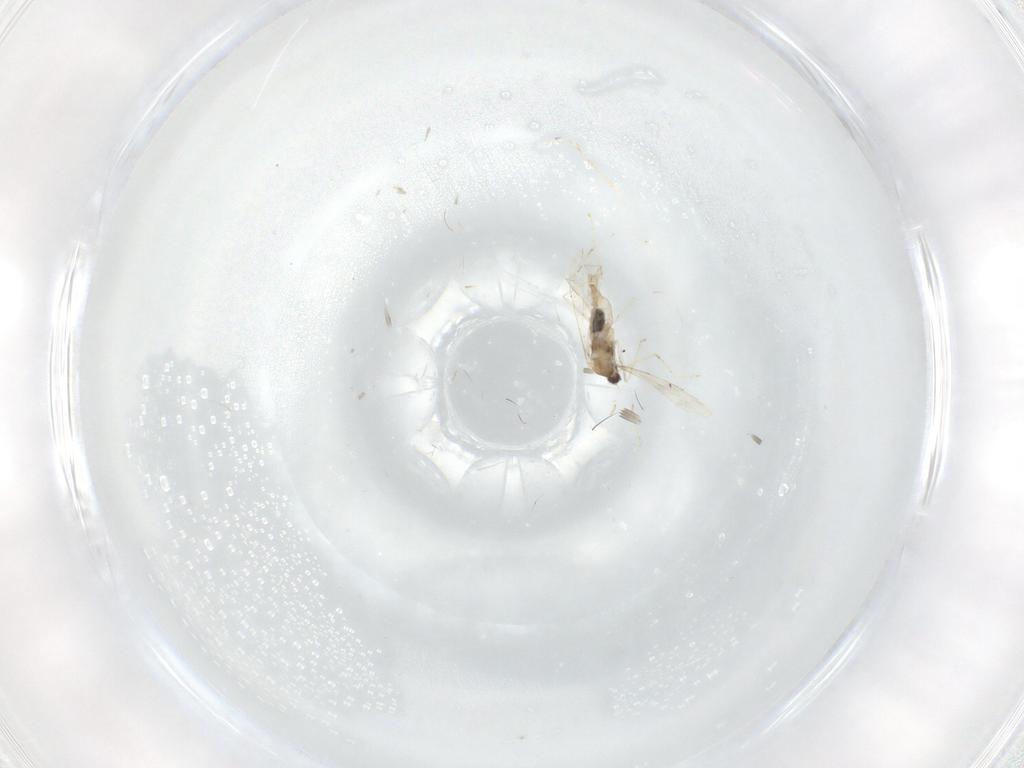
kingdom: Animalia
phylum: Arthropoda
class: Insecta
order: Diptera
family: Cecidomyiidae
